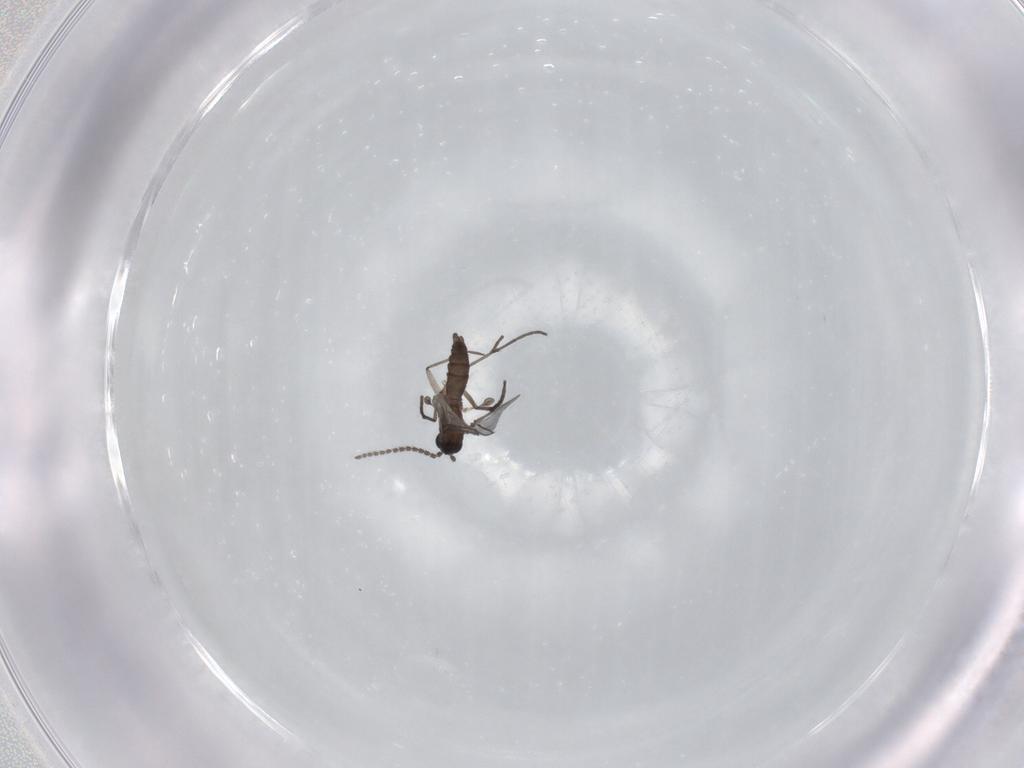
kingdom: Animalia
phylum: Arthropoda
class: Insecta
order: Diptera
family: Sciaridae
